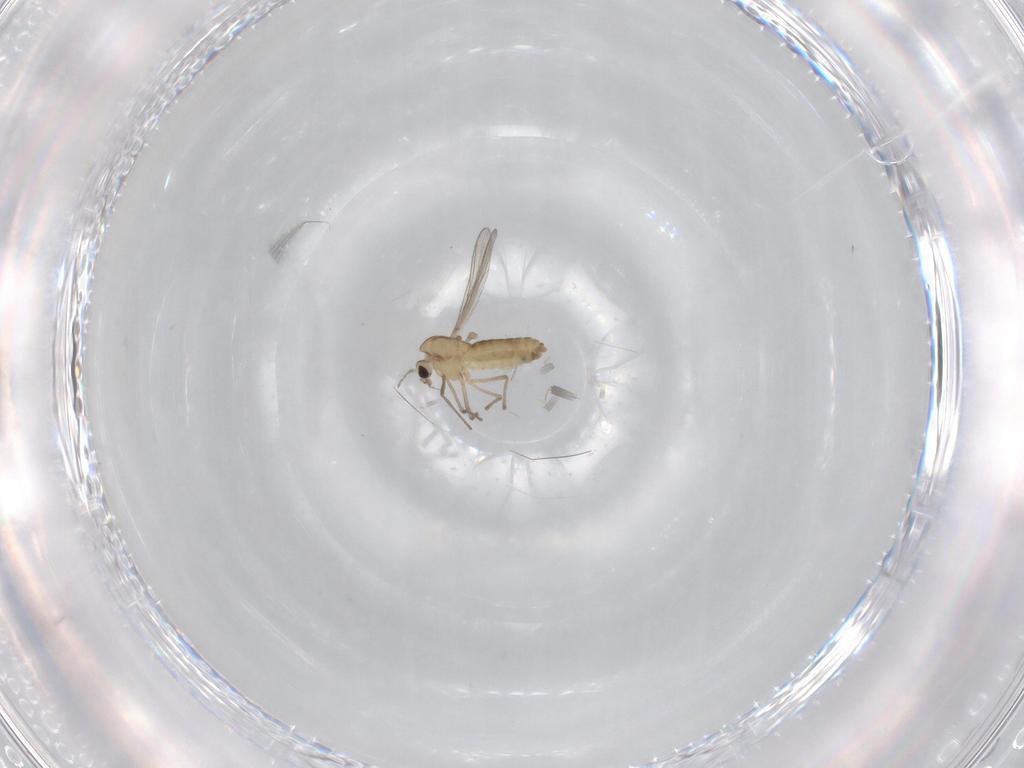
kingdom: Animalia
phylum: Arthropoda
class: Insecta
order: Diptera
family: Chironomidae
